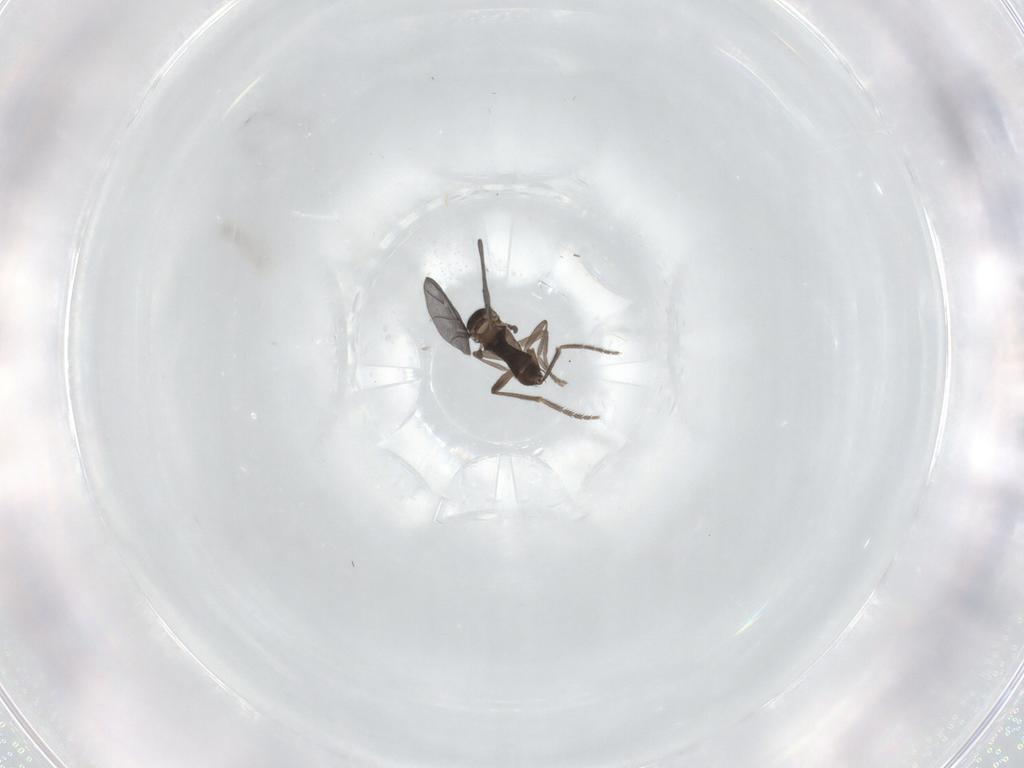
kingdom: Animalia
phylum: Arthropoda
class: Insecta
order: Diptera
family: Phoridae
